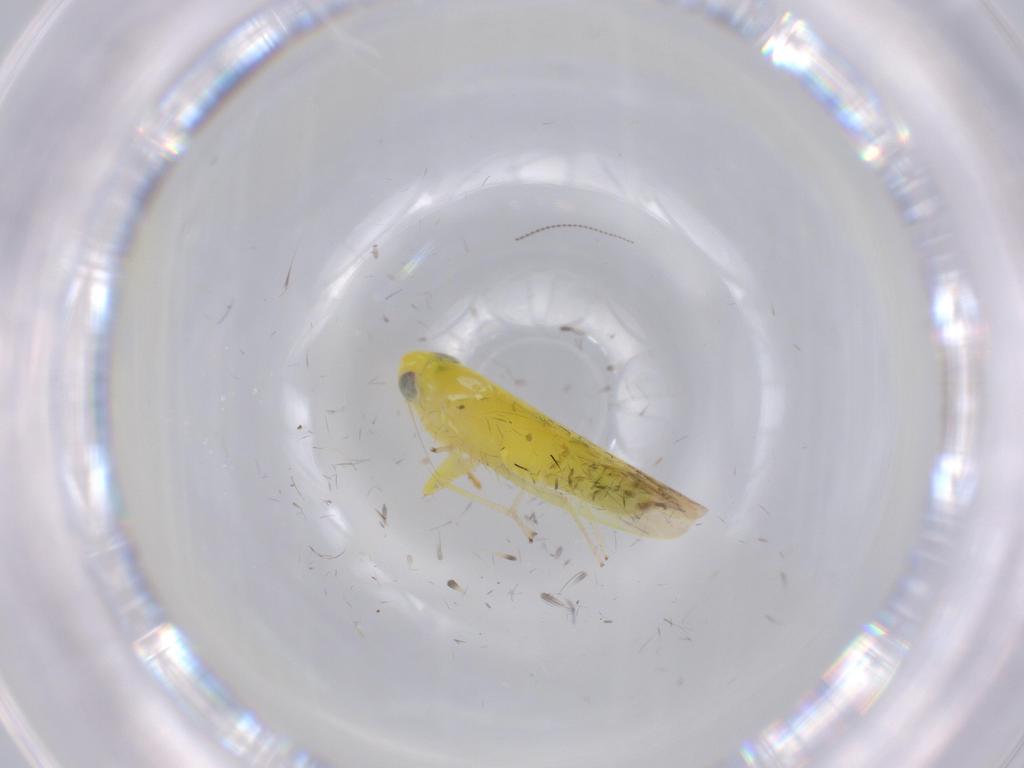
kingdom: Animalia
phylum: Arthropoda
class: Insecta
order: Hemiptera
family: Cicadellidae
